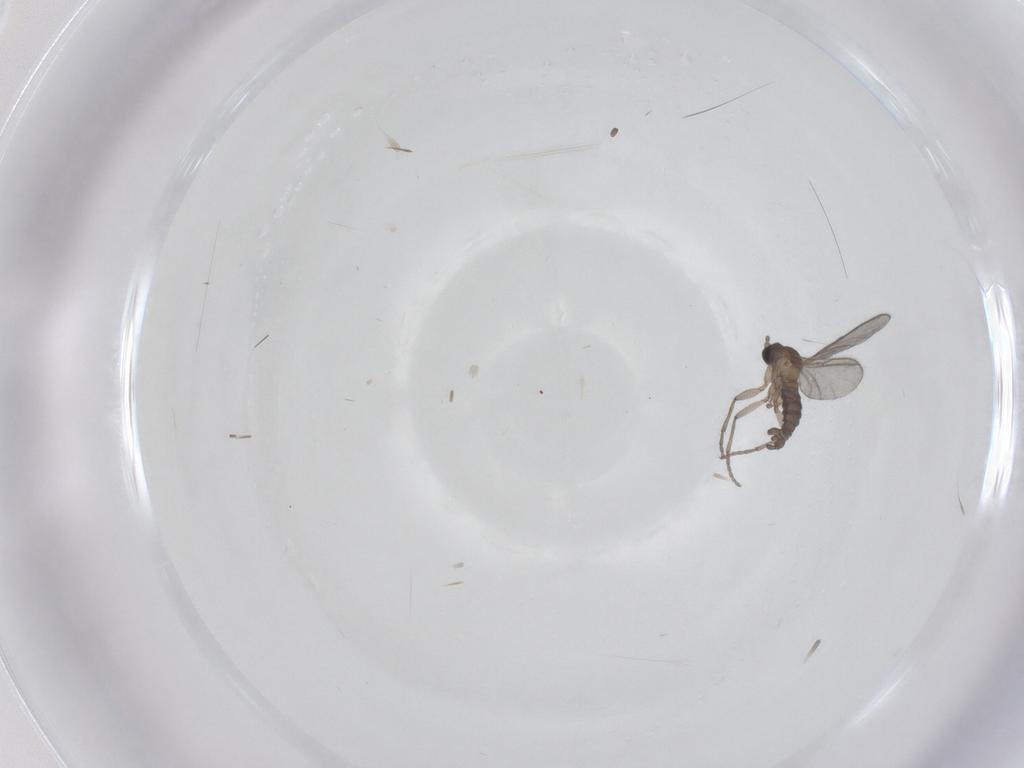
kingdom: Animalia
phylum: Arthropoda
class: Insecta
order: Diptera
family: Sciaridae
